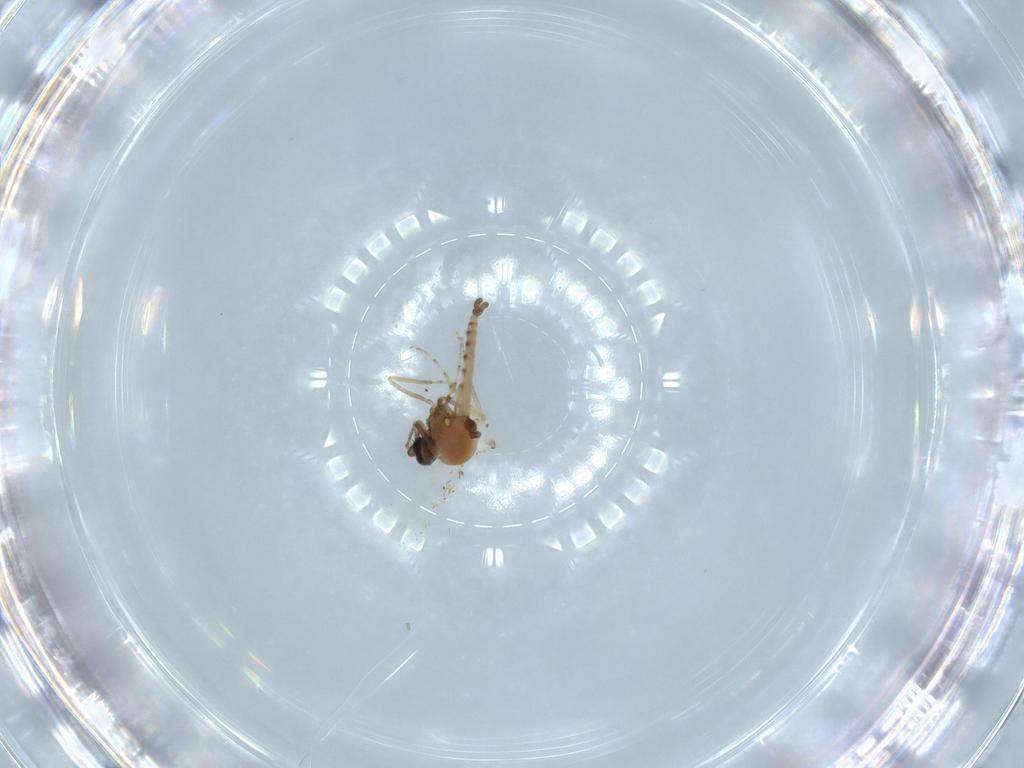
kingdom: Animalia
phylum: Arthropoda
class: Insecta
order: Diptera
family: Ceratopogonidae
